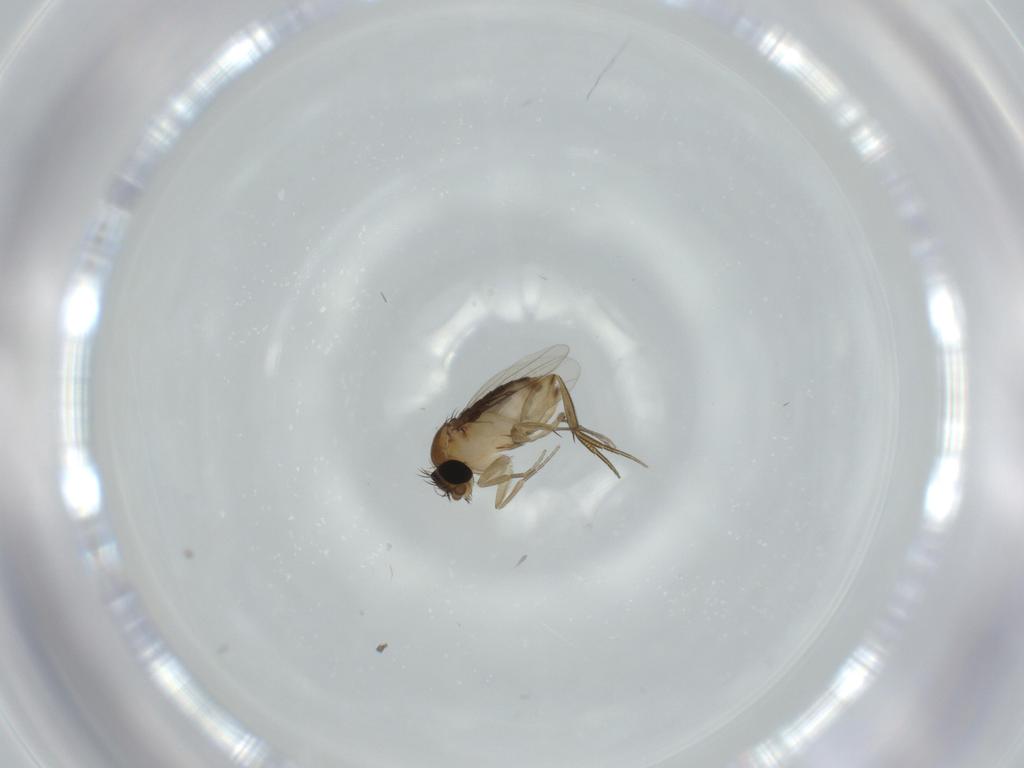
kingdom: Animalia
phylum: Arthropoda
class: Insecta
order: Diptera
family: Phoridae
